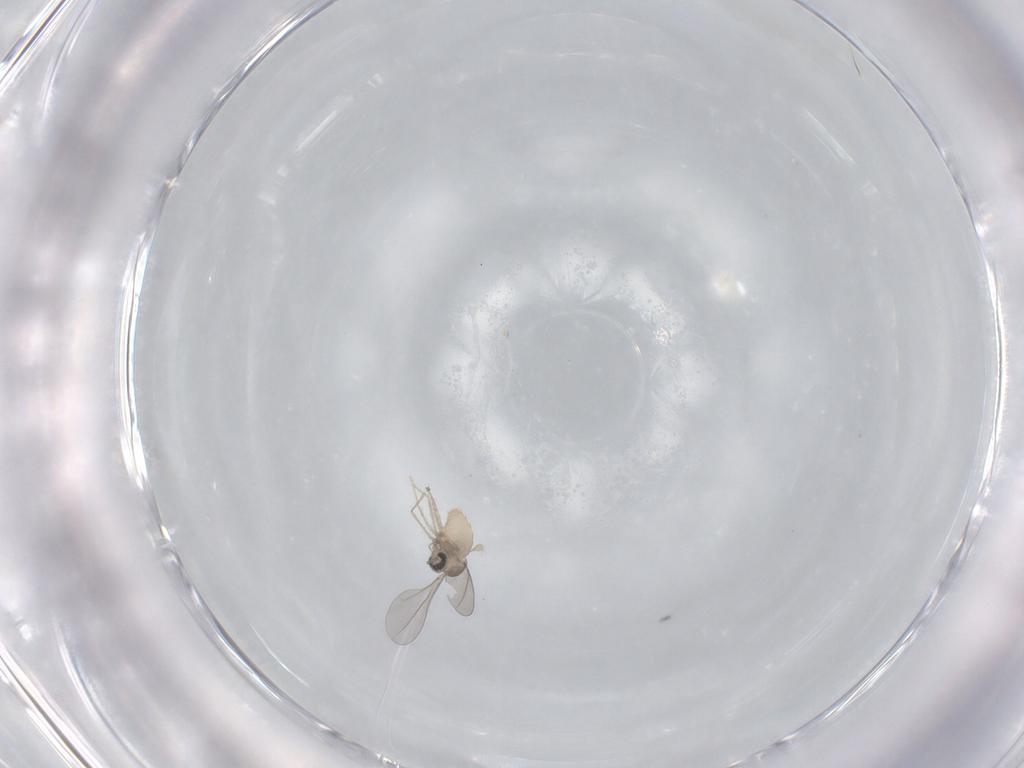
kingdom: Animalia
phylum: Arthropoda
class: Insecta
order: Diptera
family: Cecidomyiidae
